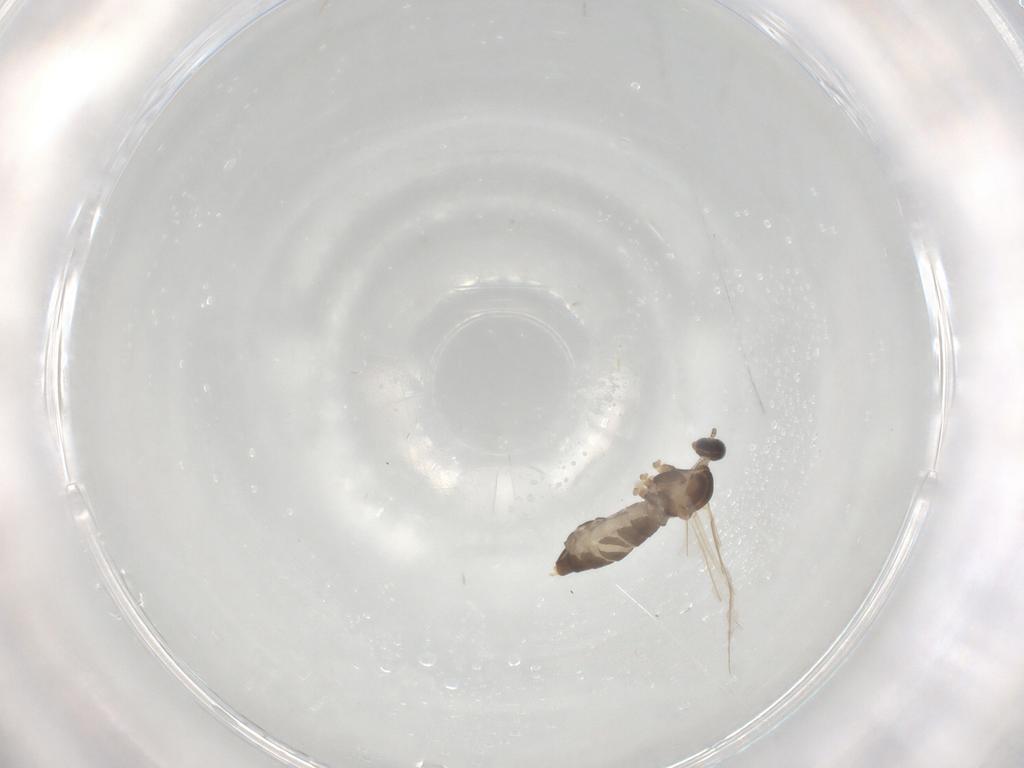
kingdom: Animalia
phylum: Arthropoda
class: Insecta
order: Diptera
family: Cecidomyiidae
